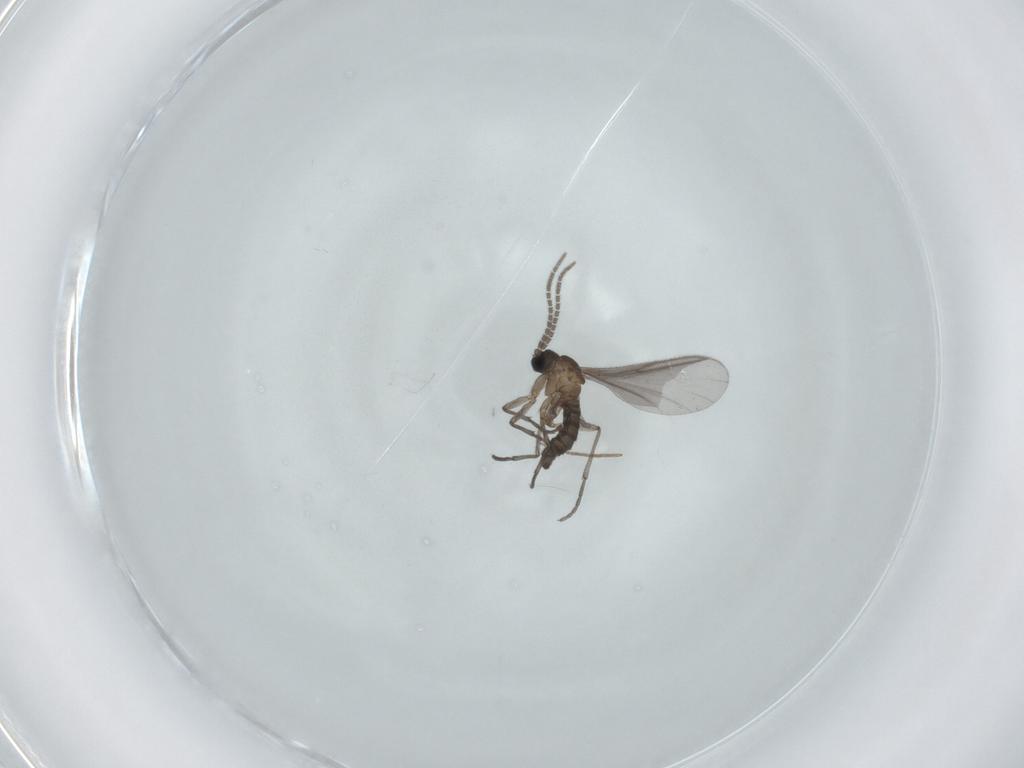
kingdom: Animalia
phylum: Arthropoda
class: Insecta
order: Diptera
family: Sciaridae
